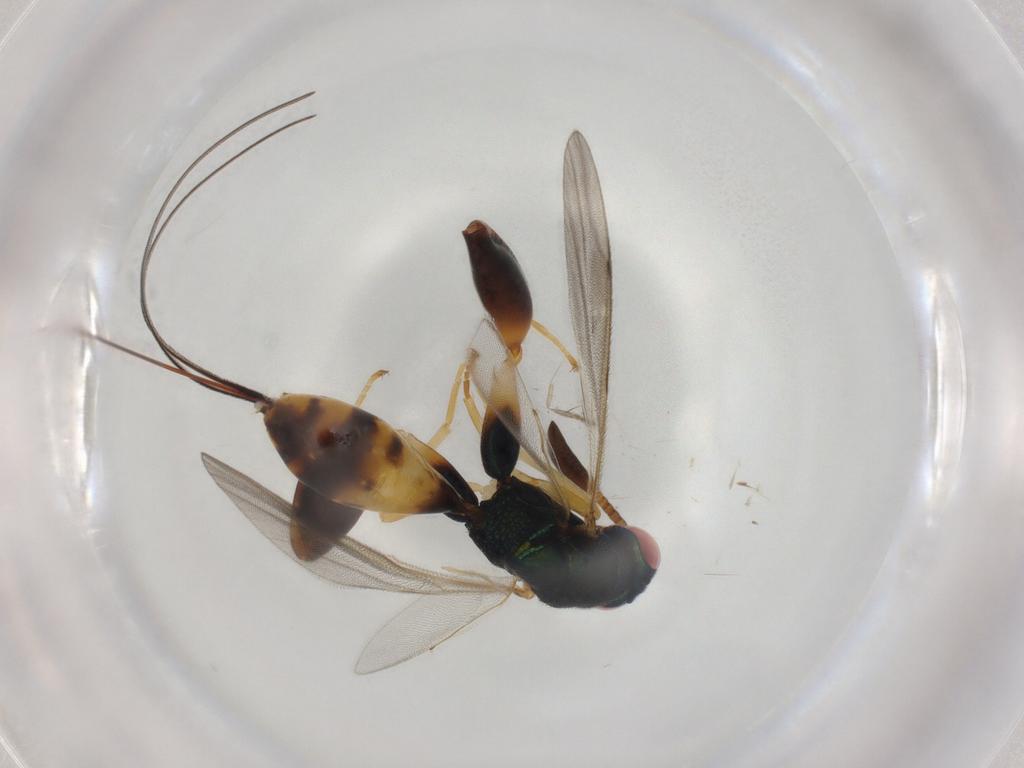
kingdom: Animalia
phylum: Arthropoda
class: Insecta
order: Hymenoptera
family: Torymidae
